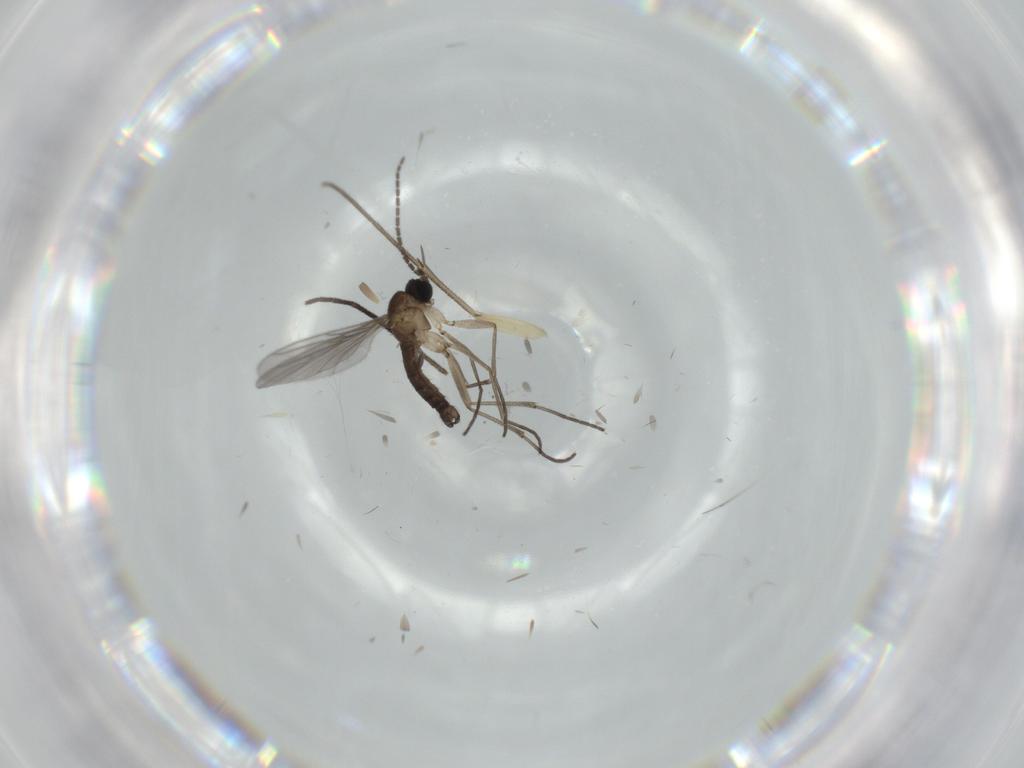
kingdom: Animalia
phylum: Arthropoda
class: Insecta
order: Diptera
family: Sciaridae
